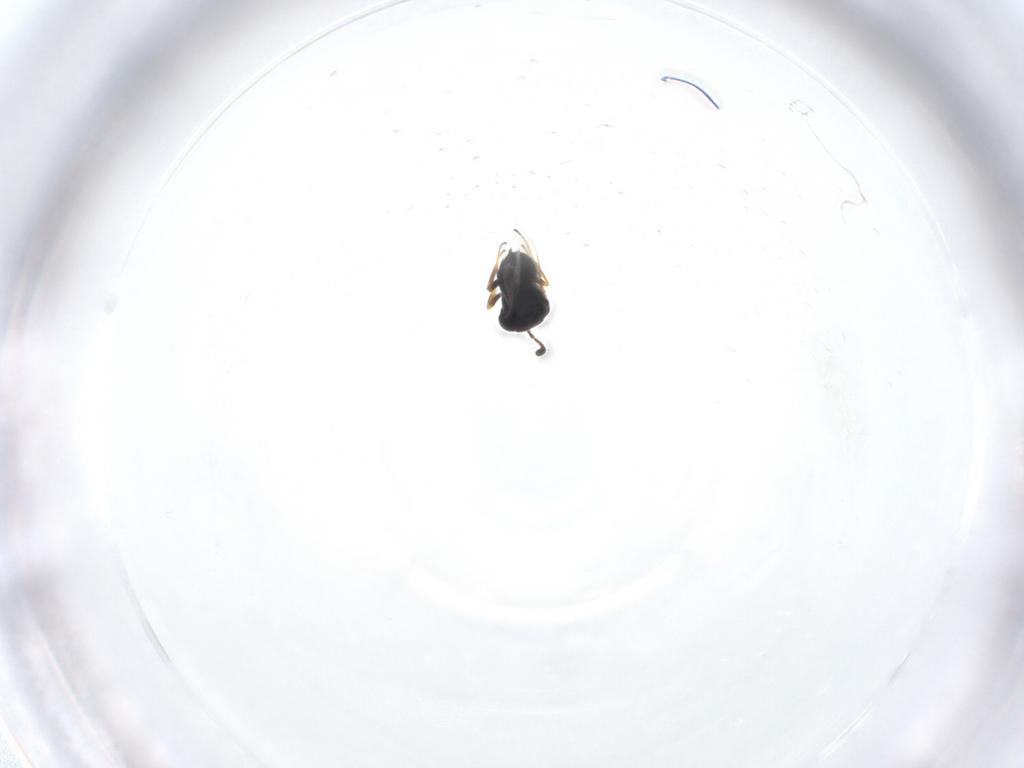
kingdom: Animalia
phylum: Arthropoda
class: Insecta
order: Hymenoptera
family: Scelionidae
